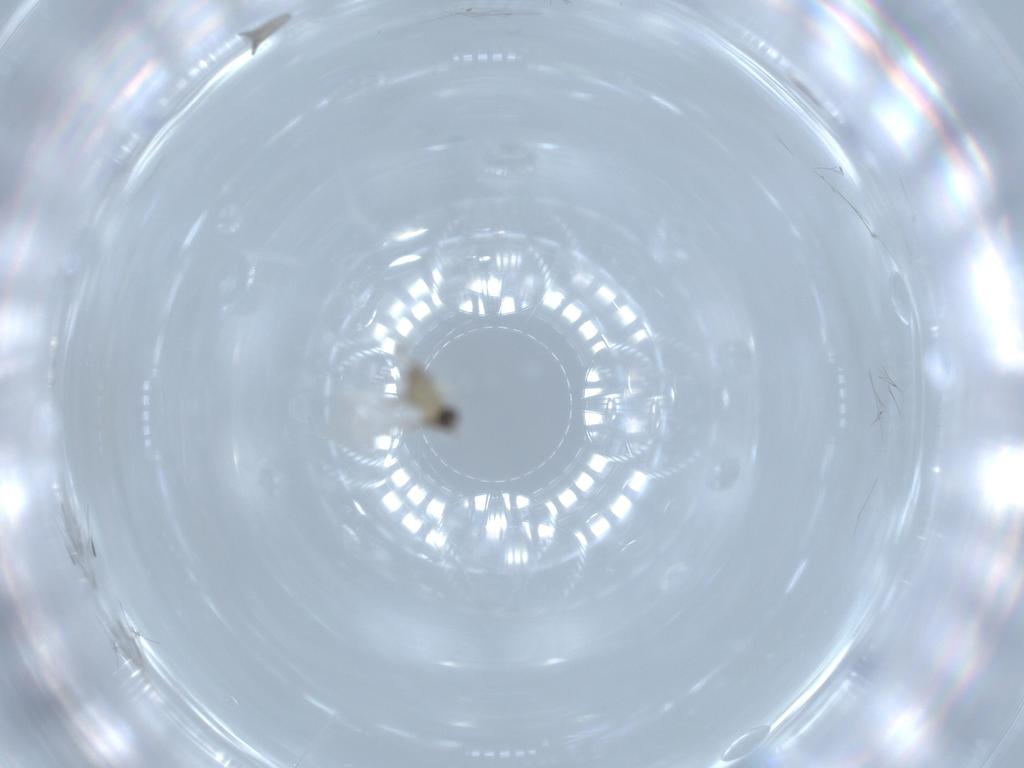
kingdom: Animalia
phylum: Arthropoda
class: Insecta
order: Diptera
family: Cecidomyiidae
